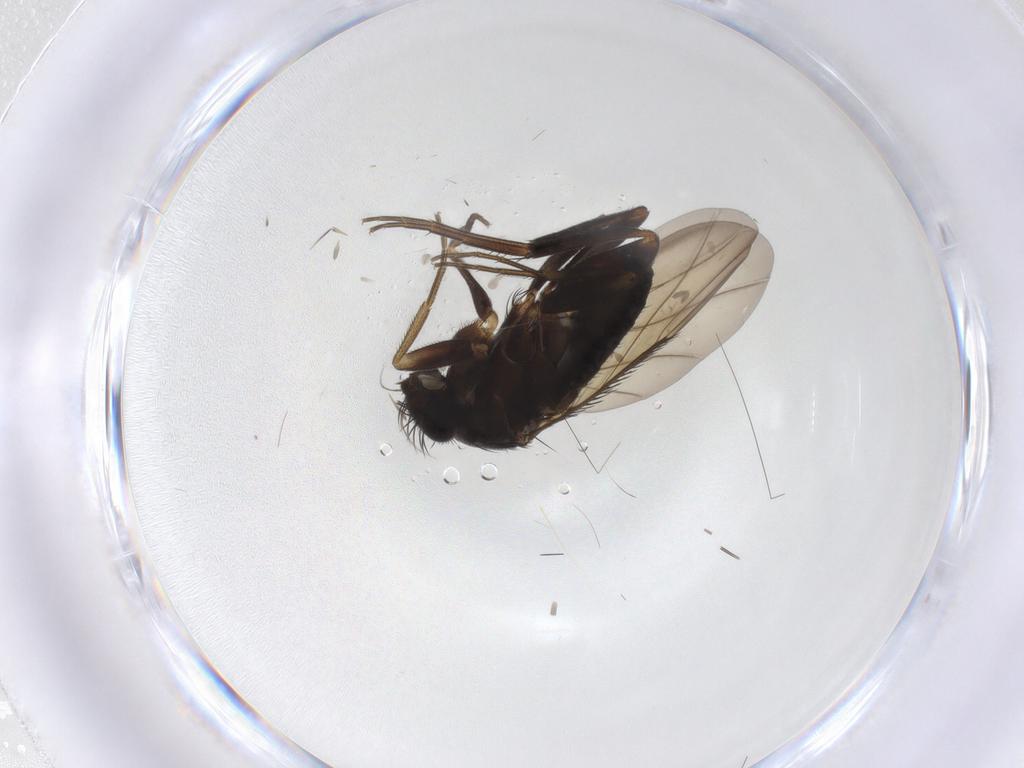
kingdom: Animalia
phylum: Arthropoda
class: Insecta
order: Diptera
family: Phoridae
